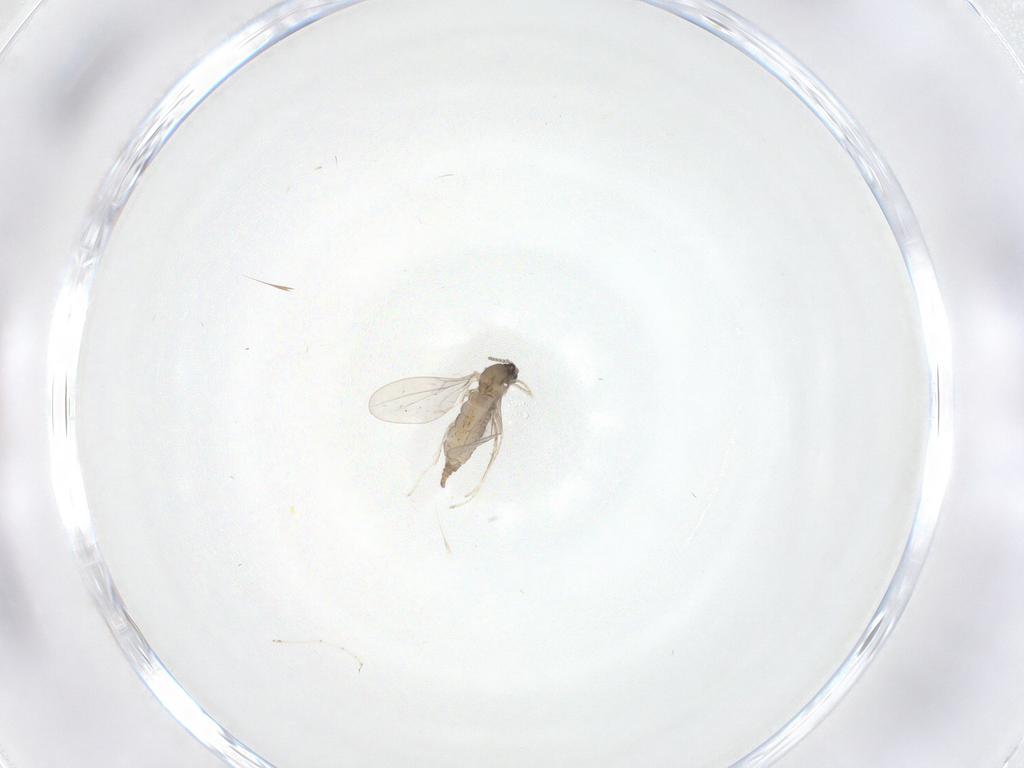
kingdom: Animalia
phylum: Arthropoda
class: Insecta
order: Diptera
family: Cecidomyiidae
